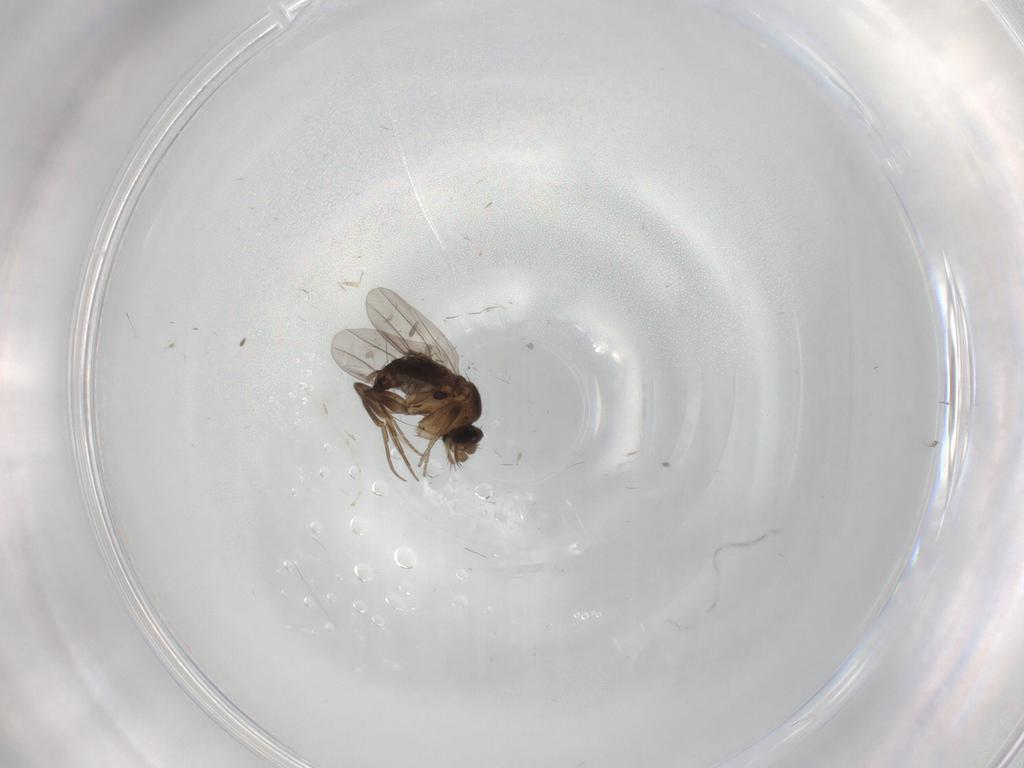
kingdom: Animalia
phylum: Arthropoda
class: Insecta
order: Diptera
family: Phoridae
